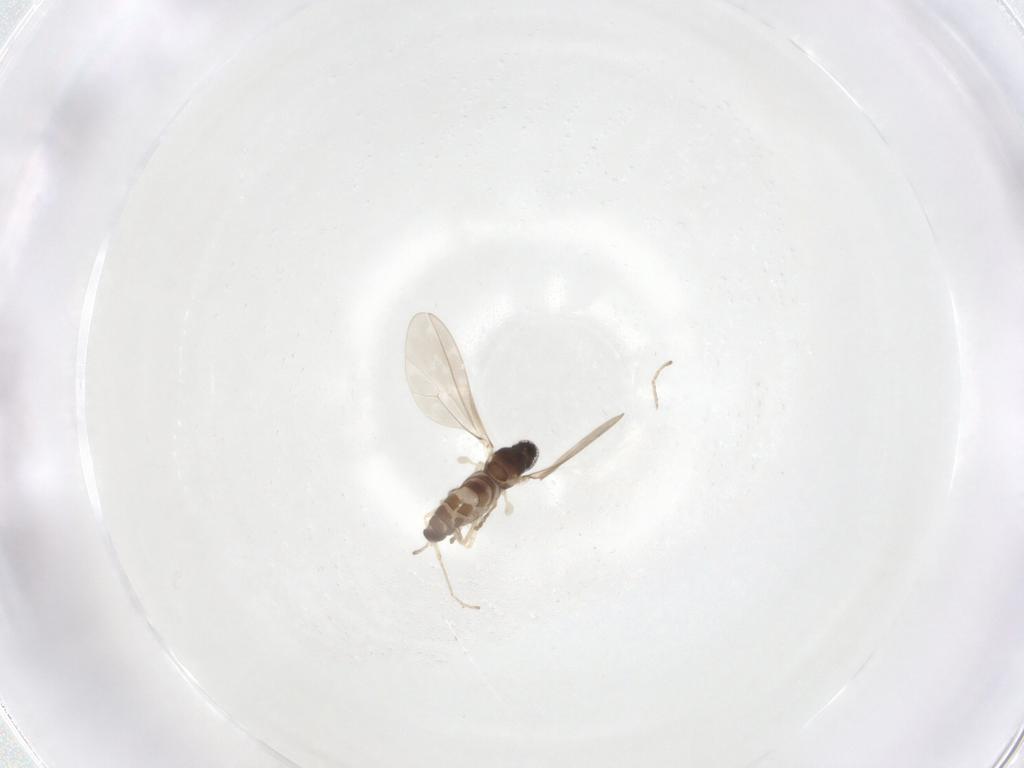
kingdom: Animalia
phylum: Arthropoda
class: Insecta
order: Diptera
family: Cecidomyiidae
